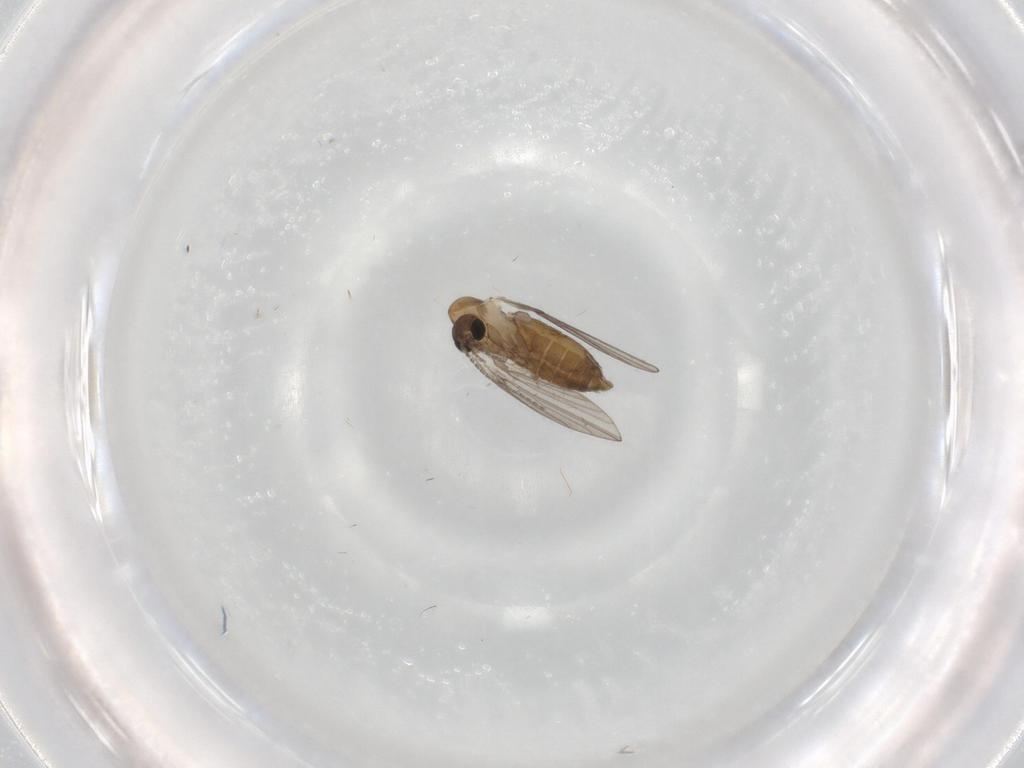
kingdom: Animalia
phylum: Arthropoda
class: Insecta
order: Diptera
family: Psychodidae
